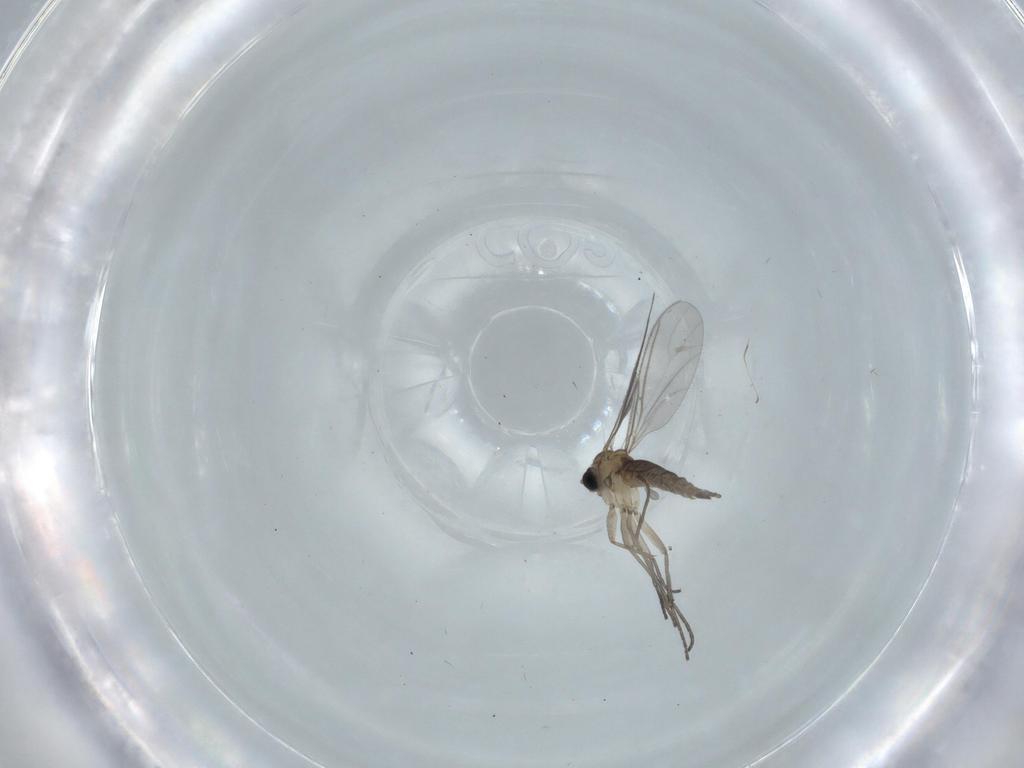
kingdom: Animalia
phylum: Arthropoda
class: Insecta
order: Diptera
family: Sciaridae
